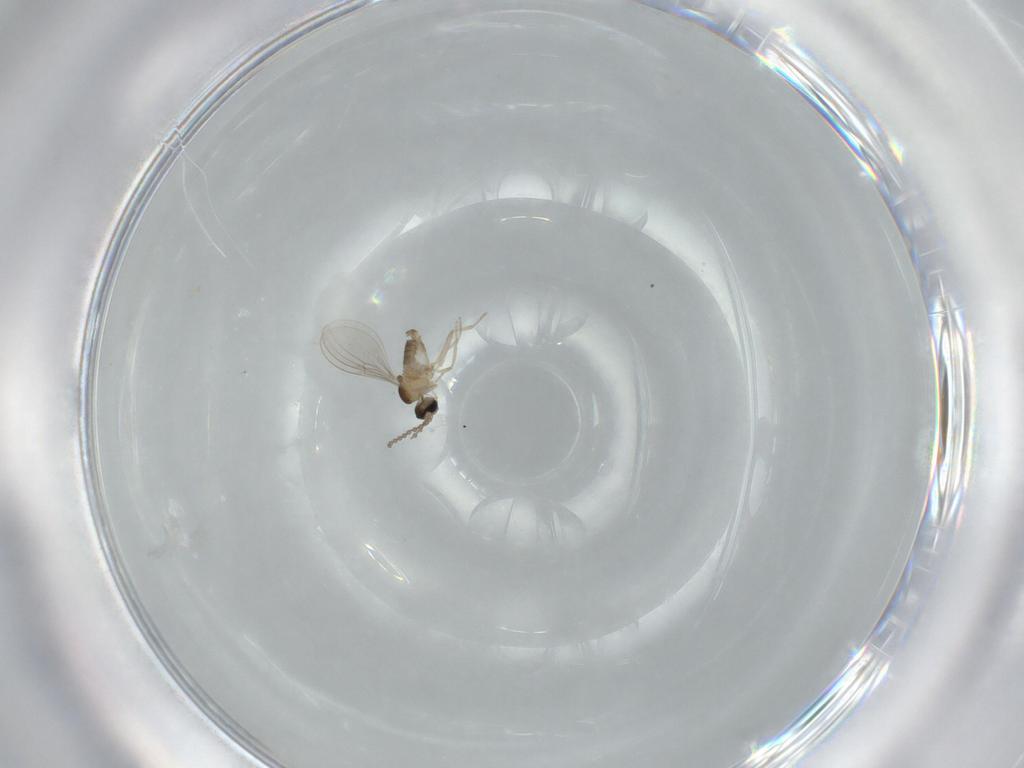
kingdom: Animalia
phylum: Arthropoda
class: Insecta
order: Diptera
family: Cecidomyiidae
